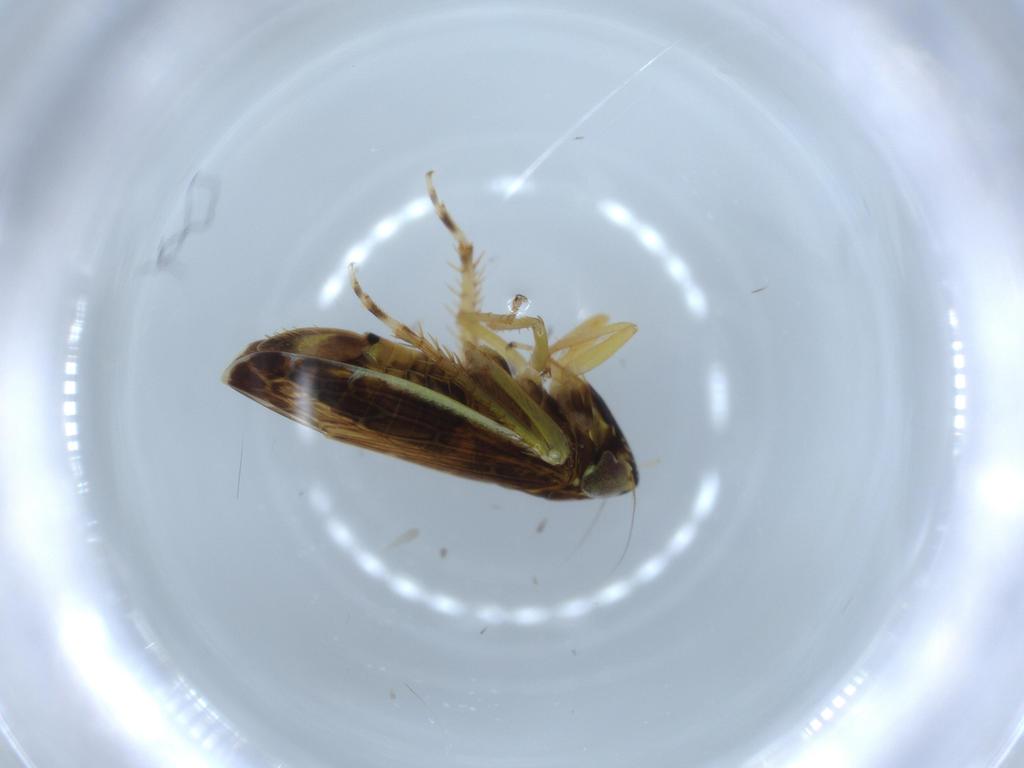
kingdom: Animalia
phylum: Arthropoda
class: Insecta
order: Hemiptera
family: Cicadellidae
